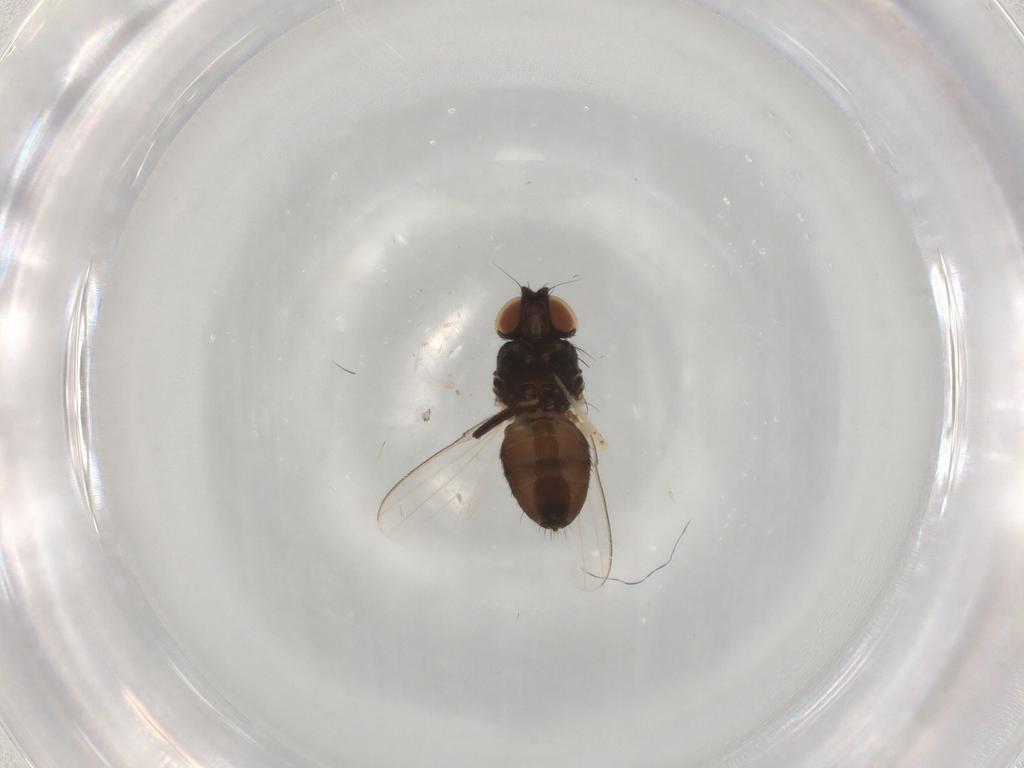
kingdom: Animalia
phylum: Arthropoda
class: Insecta
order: Diptera
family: Milichiidae
